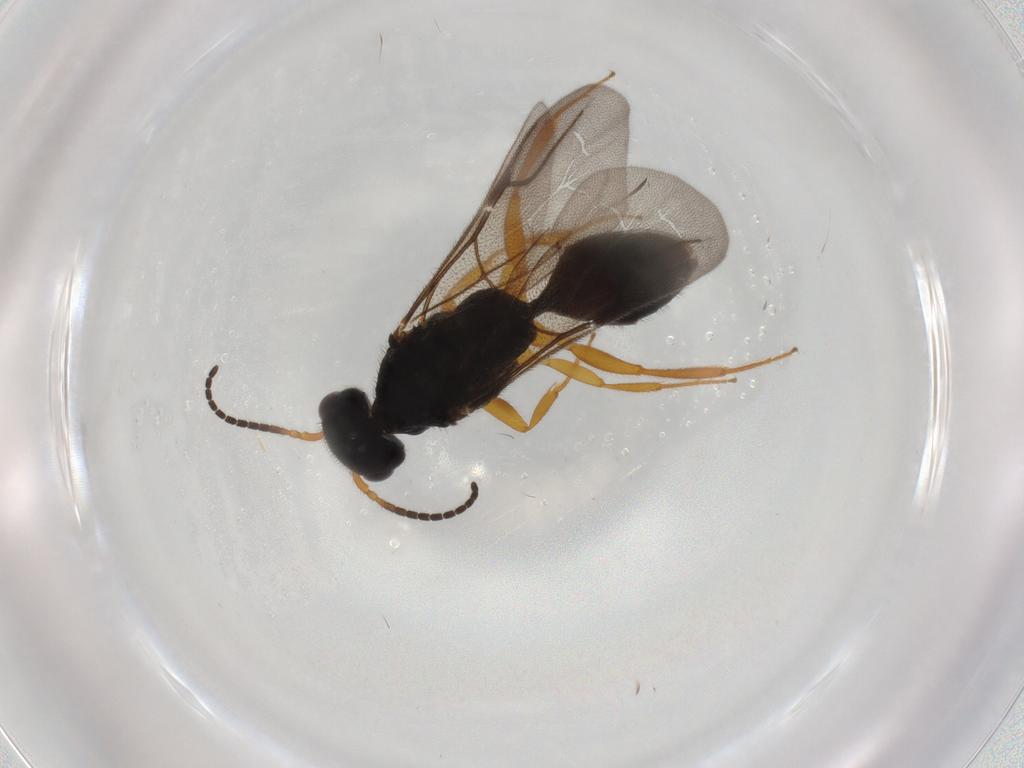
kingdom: Animalia
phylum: Arthropoda
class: Insecta
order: Hymenoptera
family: Bethylidae
